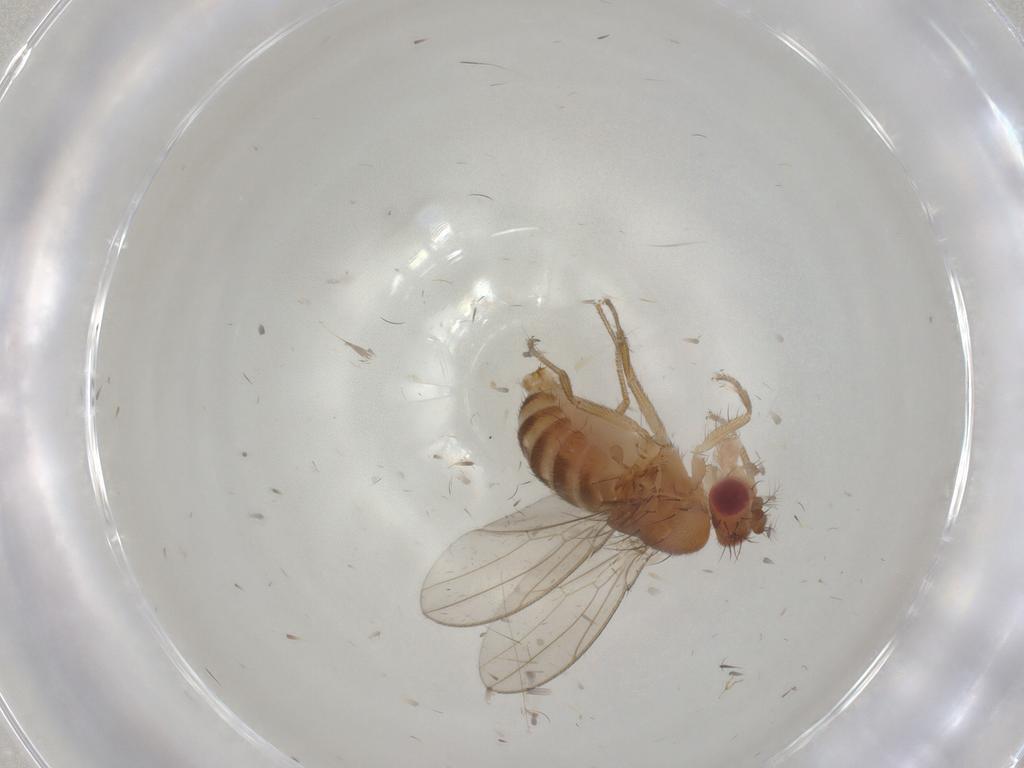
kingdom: Animalia
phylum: Arthropoda
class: Insecta
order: Diptera
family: Drosophilidae
